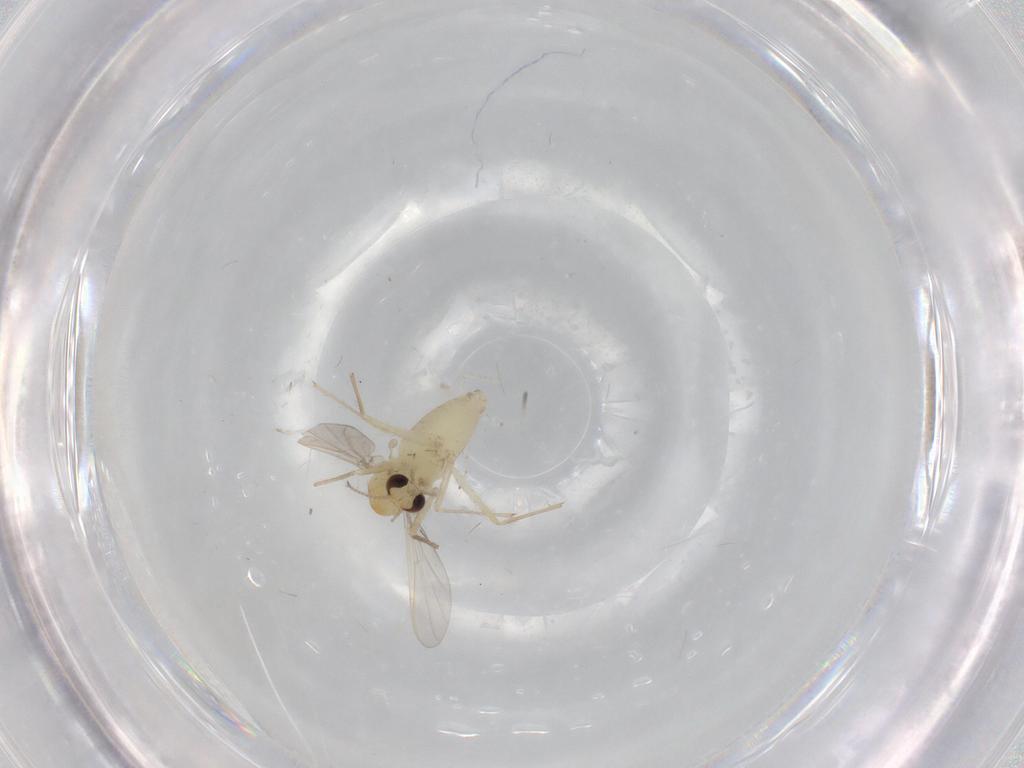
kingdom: Animalia
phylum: Arthropoda
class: Insecta
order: Diptera
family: Chironomidae
